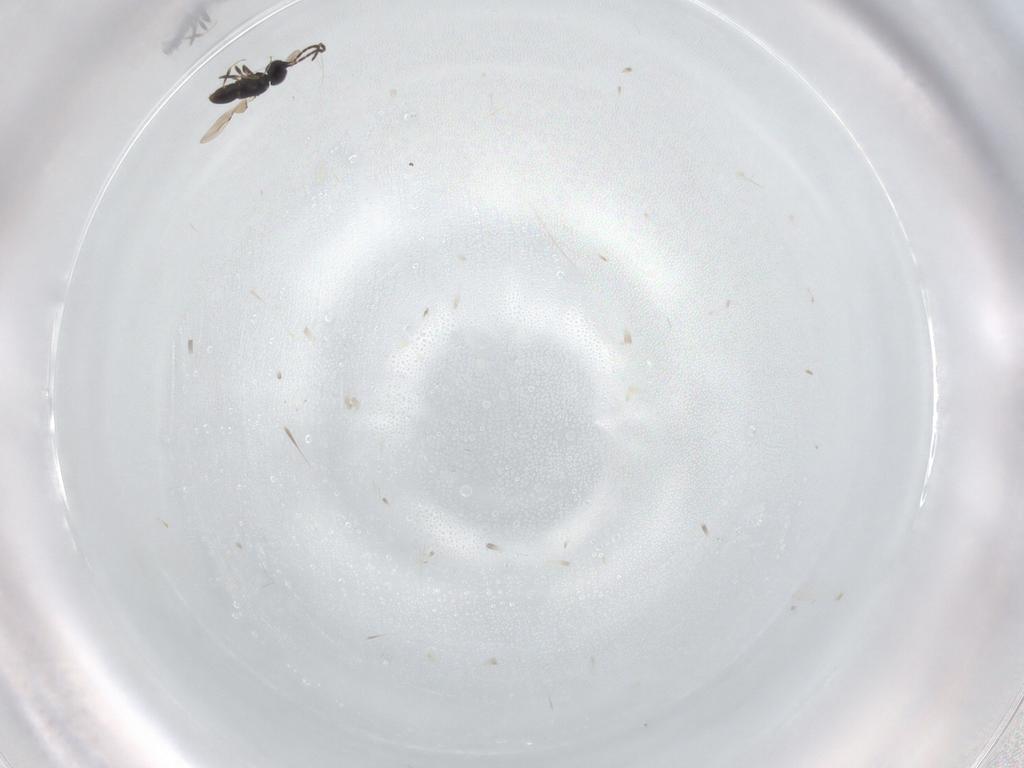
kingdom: Animalia
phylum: Arthropoda
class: Insecta
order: Hymenoptera
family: Ceraphronidae
